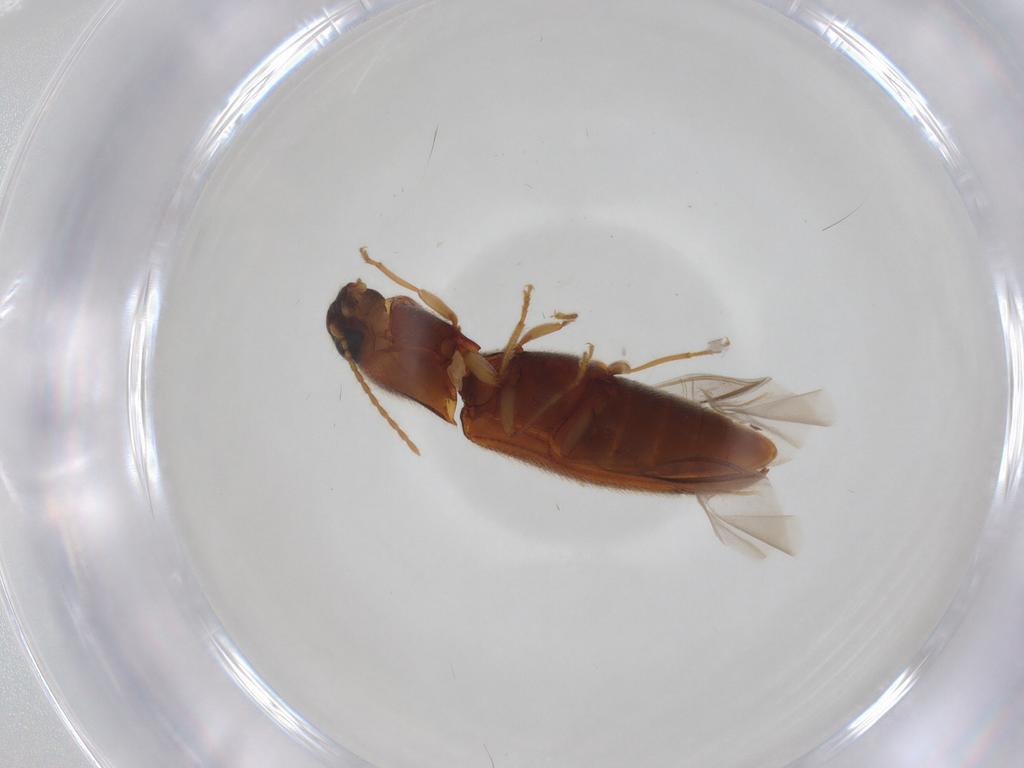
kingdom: Animalia
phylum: Arthropoda
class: Insecta
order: Coleoptera
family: Elateridae
